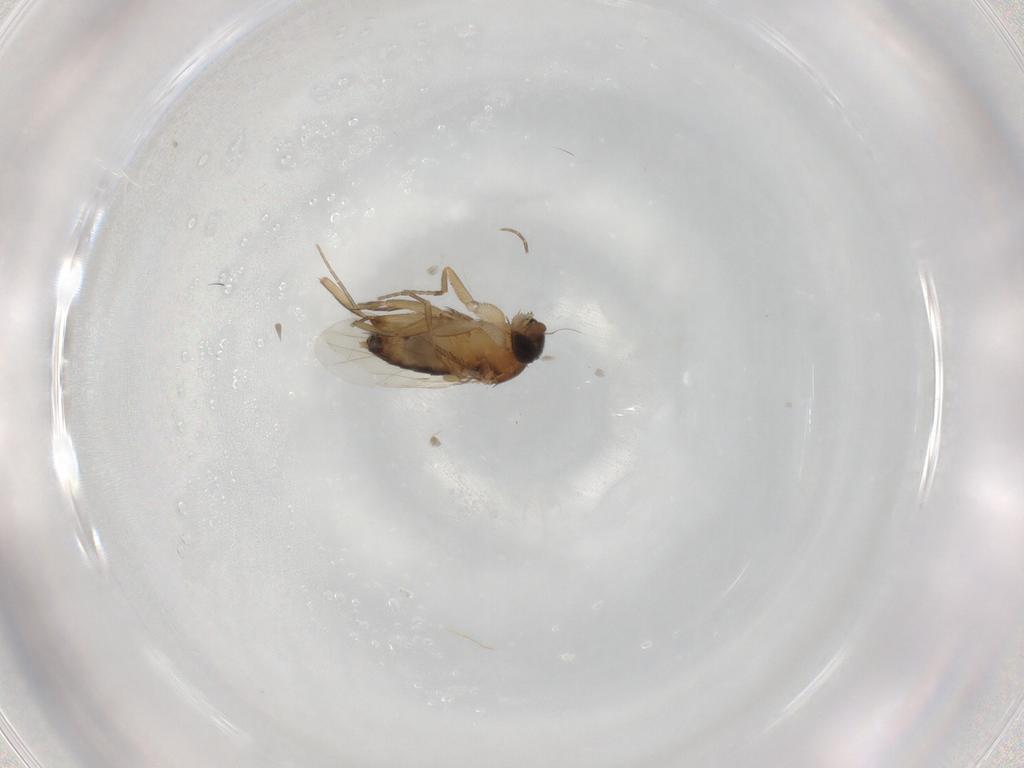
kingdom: Animalia
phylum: Arthropoda
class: Insecta
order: Diptera
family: Phoridae
